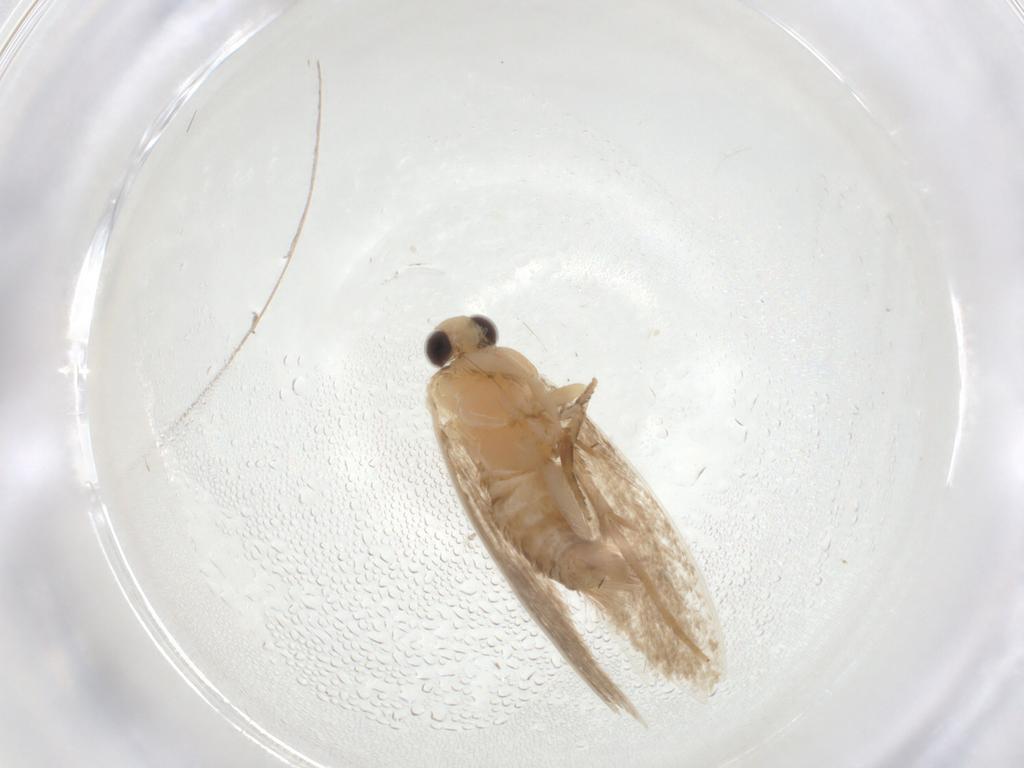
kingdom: Animalia
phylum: Arthropoda
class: Insecta
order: Lepidoptera
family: Tineidae
